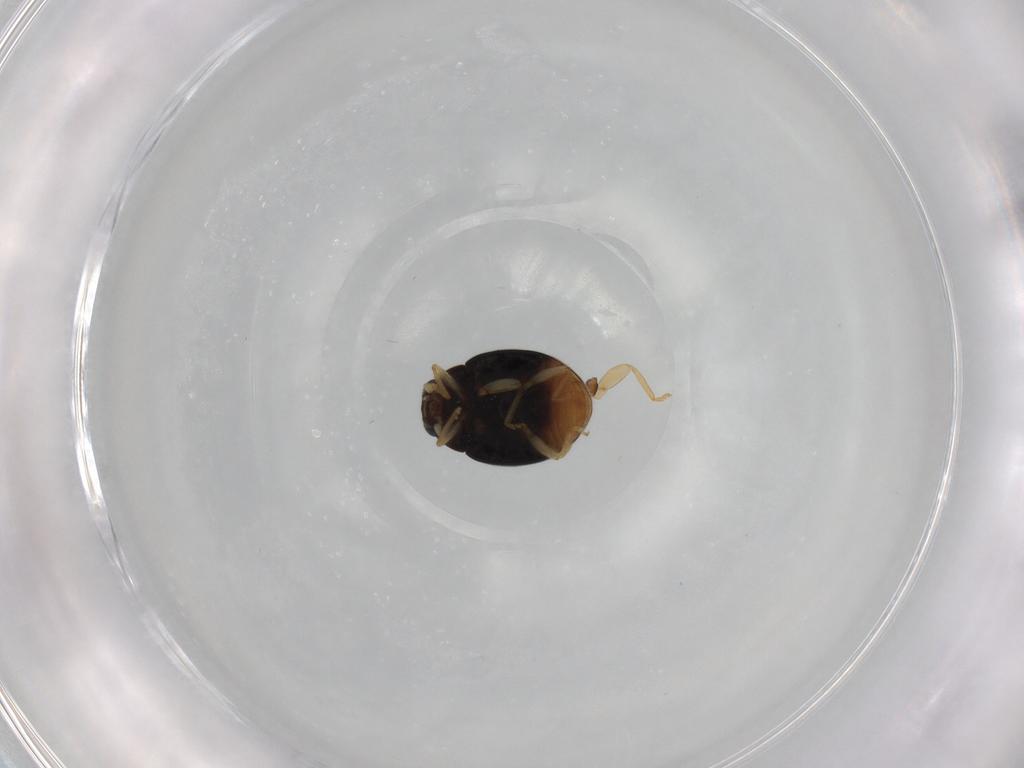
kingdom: Animalia
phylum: Arthropoda
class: Insecta
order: Coleoptera
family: Coccinellidae
